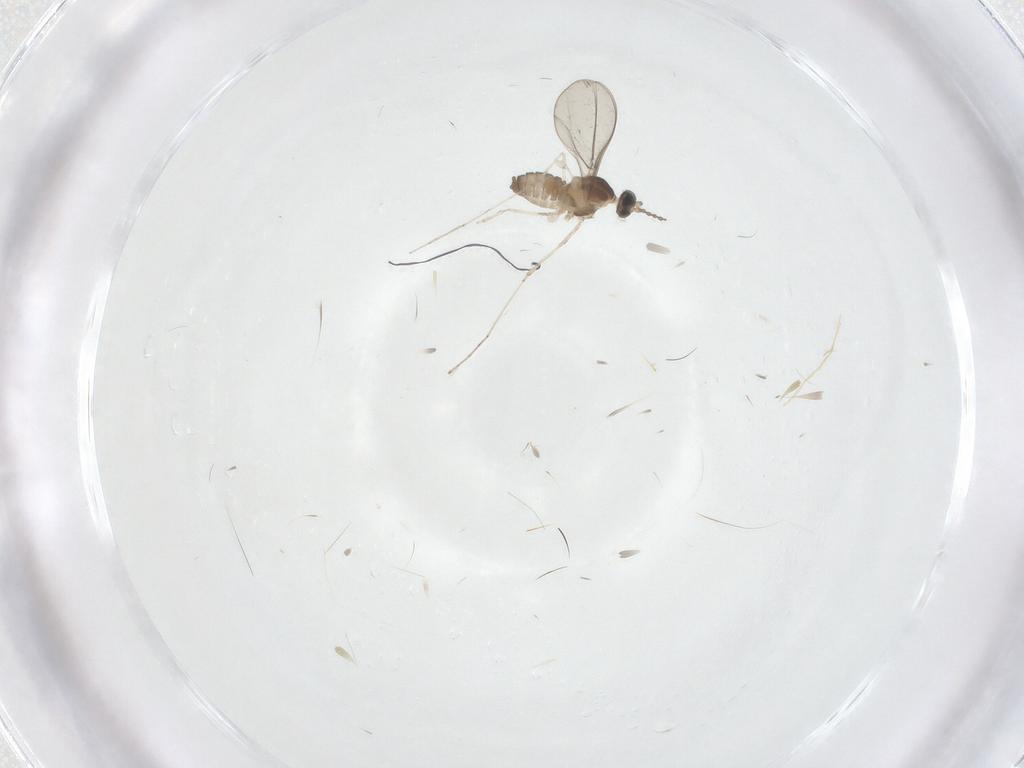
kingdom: Animalia
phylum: Arthropoda
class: Insecta
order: Diptera
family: Cecidomyiidae
